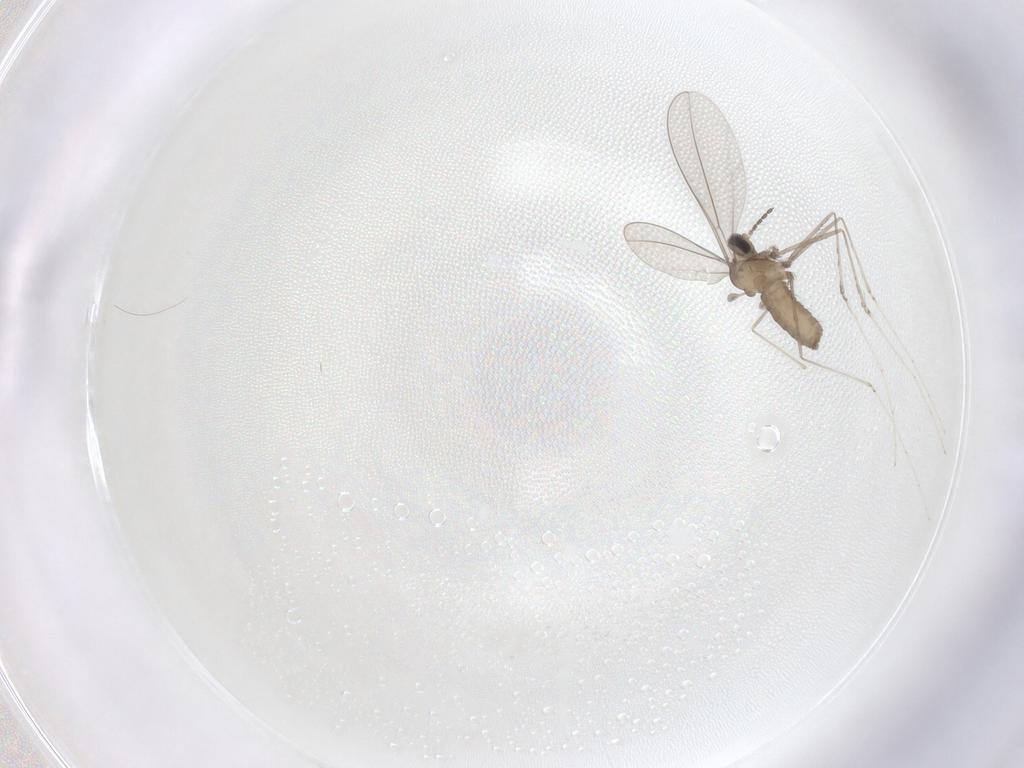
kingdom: Animalia
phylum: Arthropoda
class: Insecta
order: Diptera
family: Cecidomyiidae
